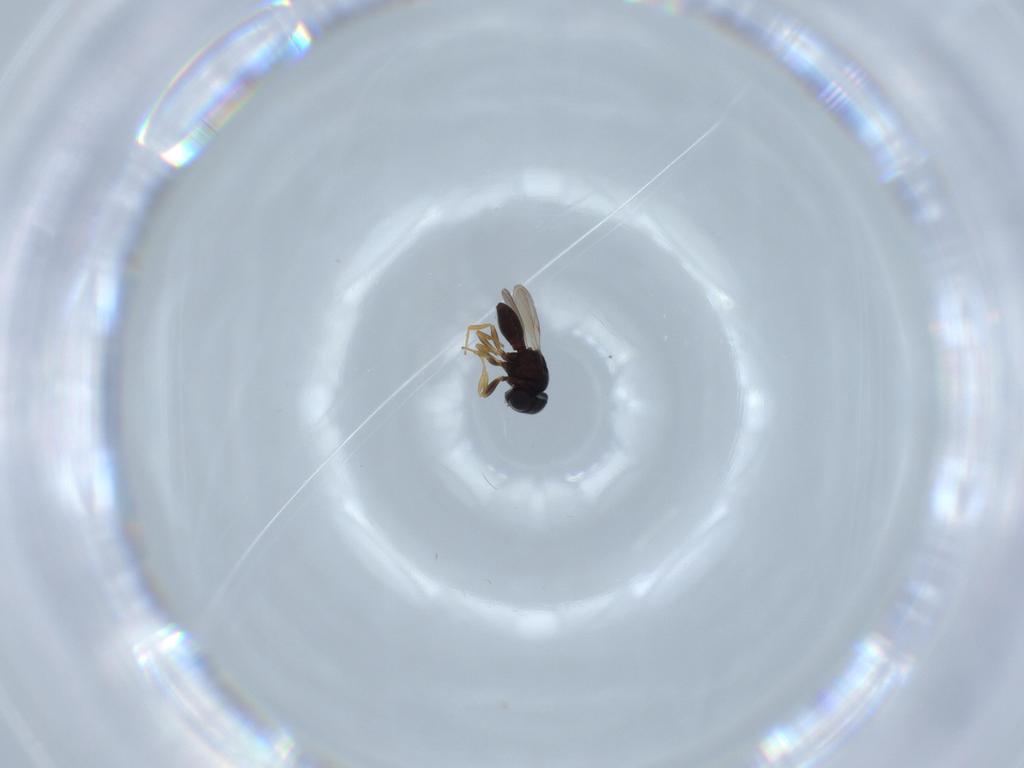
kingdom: Animalia
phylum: Arthropoda
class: Insecta
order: Hymenoptera
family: Scelionidae
